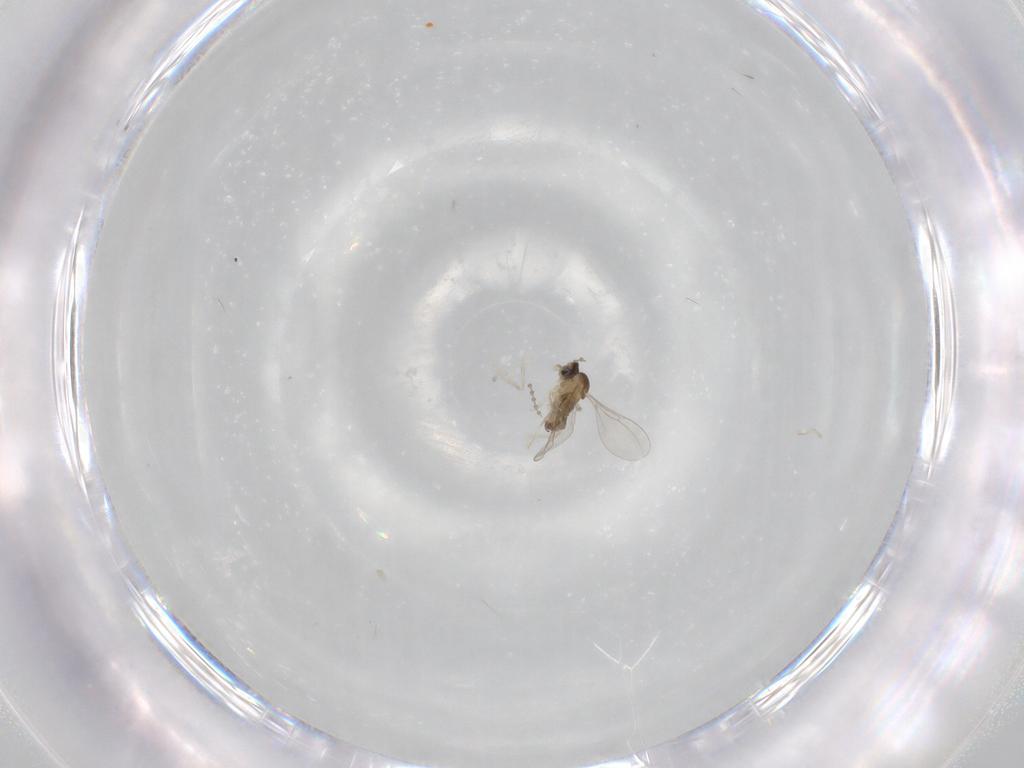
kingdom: Animalia
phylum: Arthropoda
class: Insecta
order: Diptera
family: Cecidomyiidae
